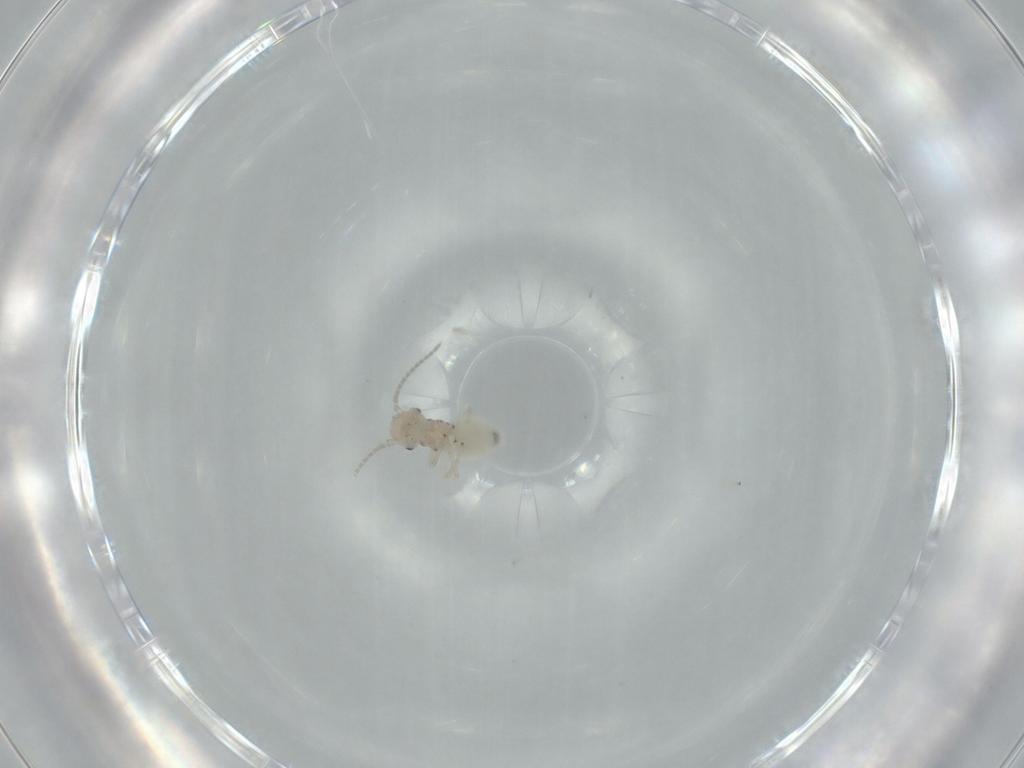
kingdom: Animalia
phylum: Arthropoda
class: Insecta
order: Psocodea
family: Amphipsocidae
